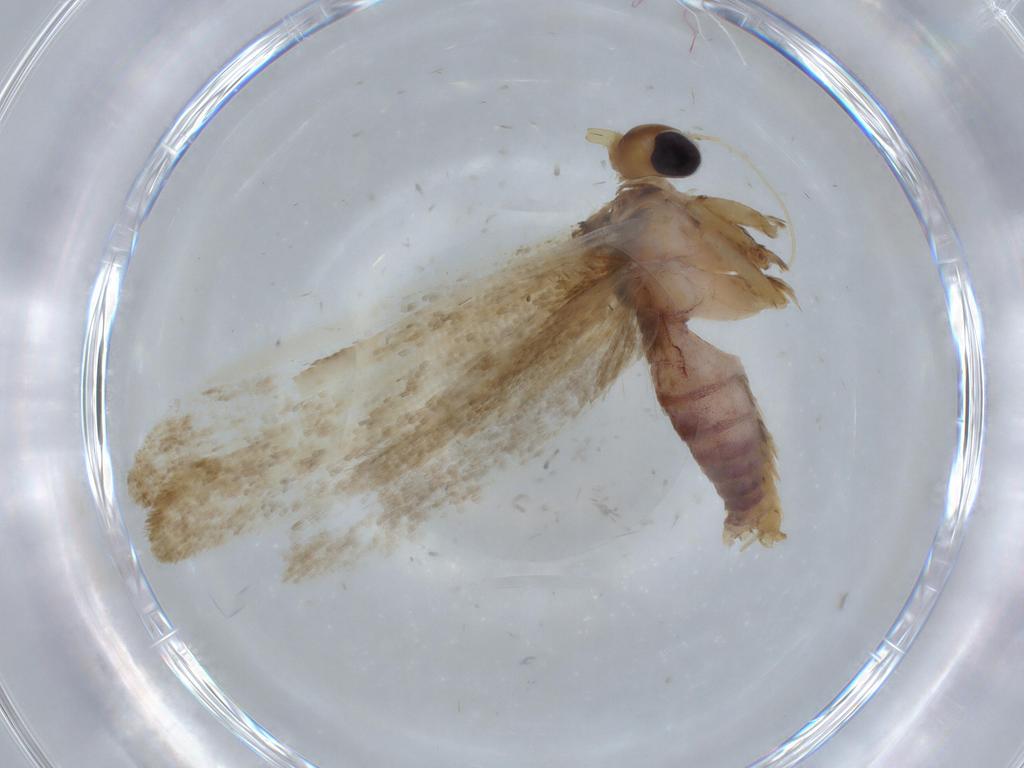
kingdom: Animalia
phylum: Arthropoda
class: Insecta
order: Lepidoptera
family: Blastobasidae
